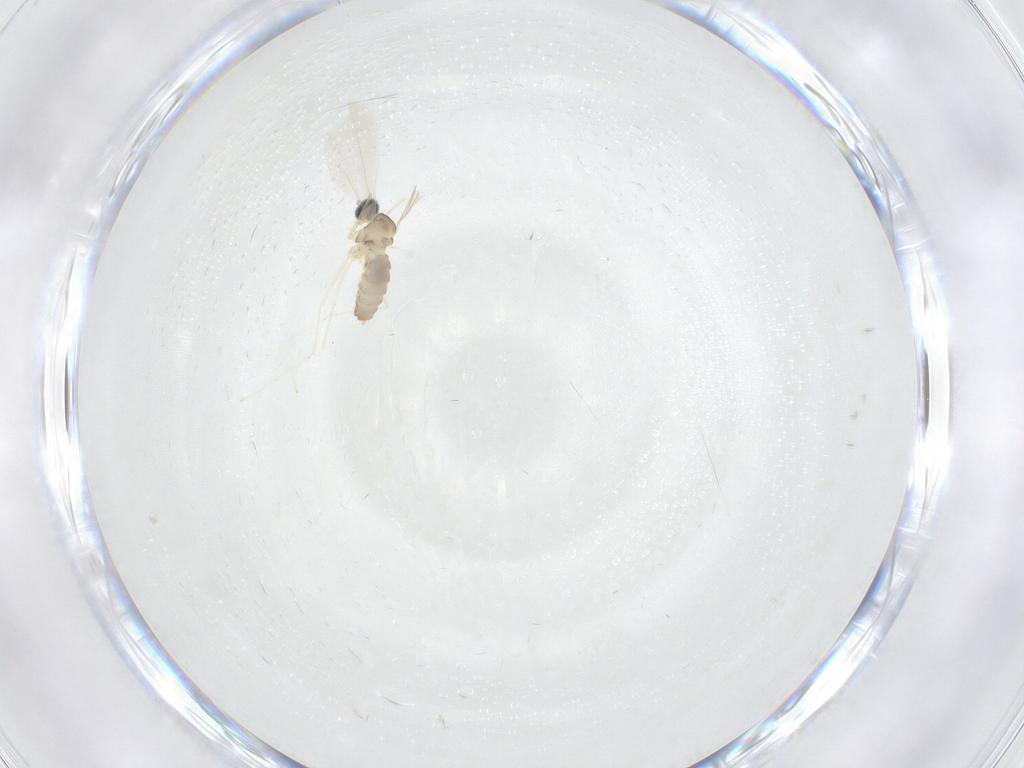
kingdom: Animalia
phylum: Arthropoda
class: Insecta
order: Diptera
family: Cecidomyiidae
